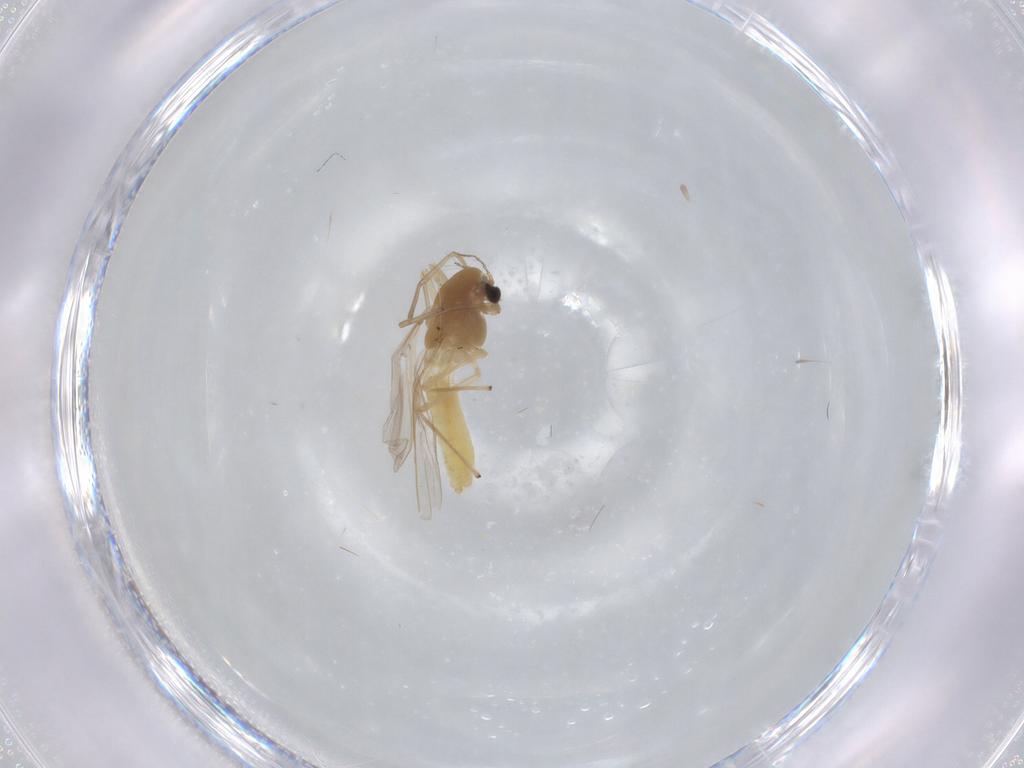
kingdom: Animalia
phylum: Arthropoda
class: Insecta
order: Diptera
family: Chironomidae
